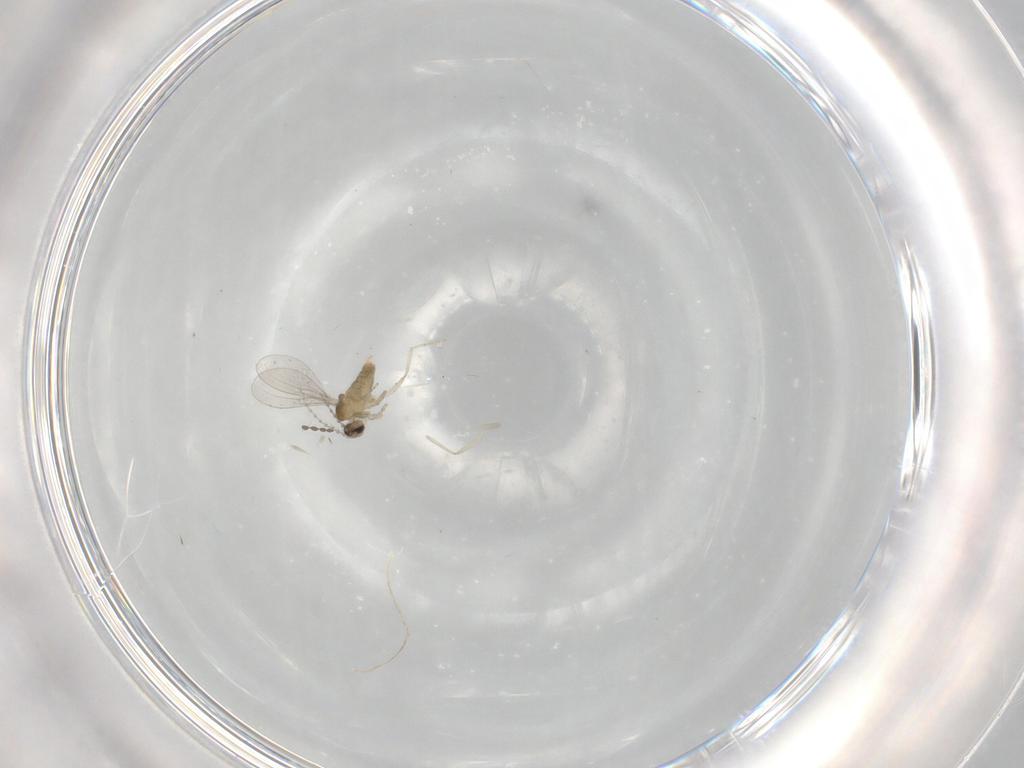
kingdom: Animalia
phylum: Arthropoda
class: Insecta
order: Diptera
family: Cecidomyiidae
